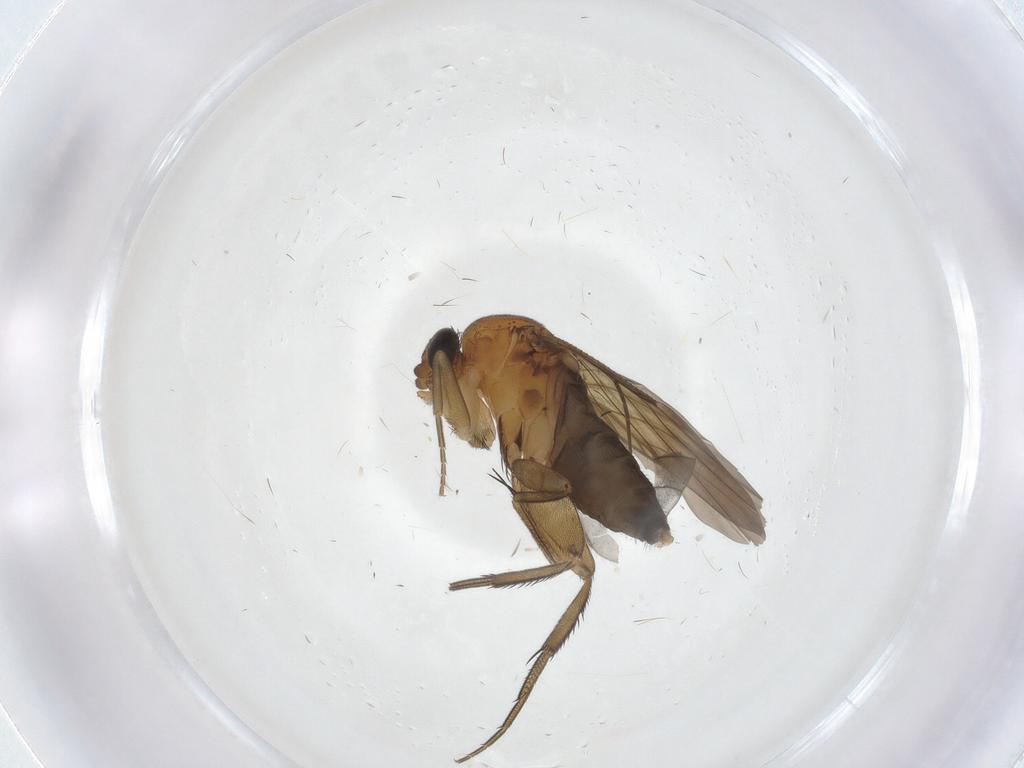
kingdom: Animalia
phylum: Arthropoda
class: Insecta
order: Diptera
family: Phoridae
